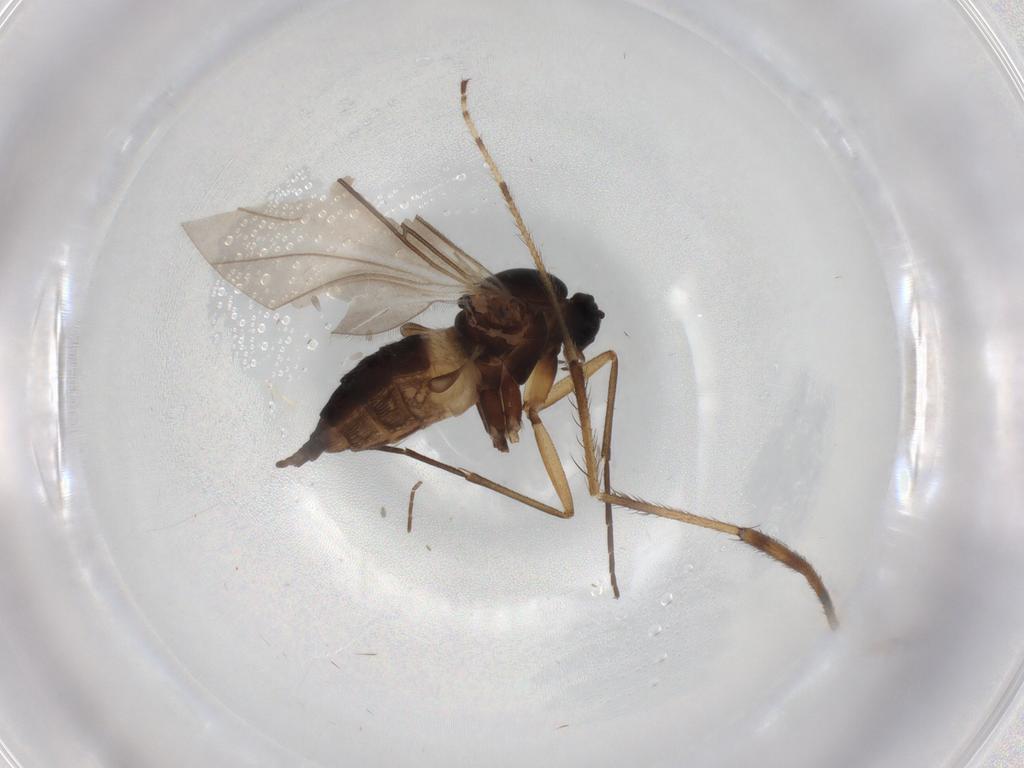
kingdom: Animalia
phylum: Arthropoda
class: Insecta
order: Diptera
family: Sciaridae
